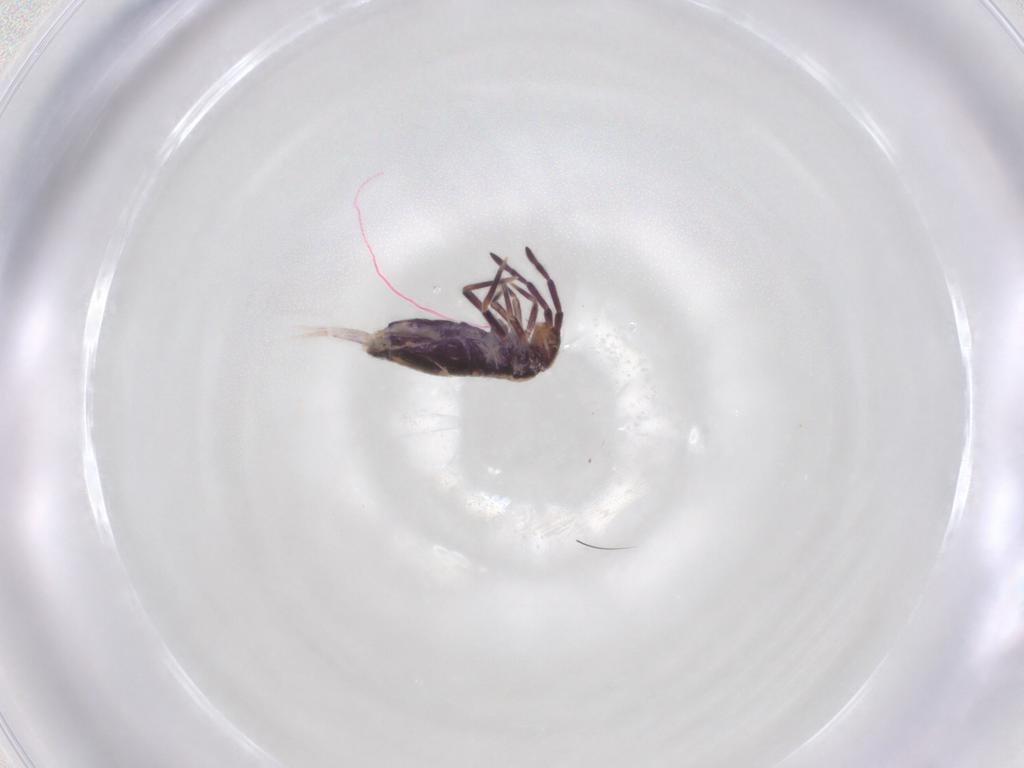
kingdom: Animalia
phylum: Arthropoda
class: Collembola
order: Entomobryomorpha
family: Entomobryidae
